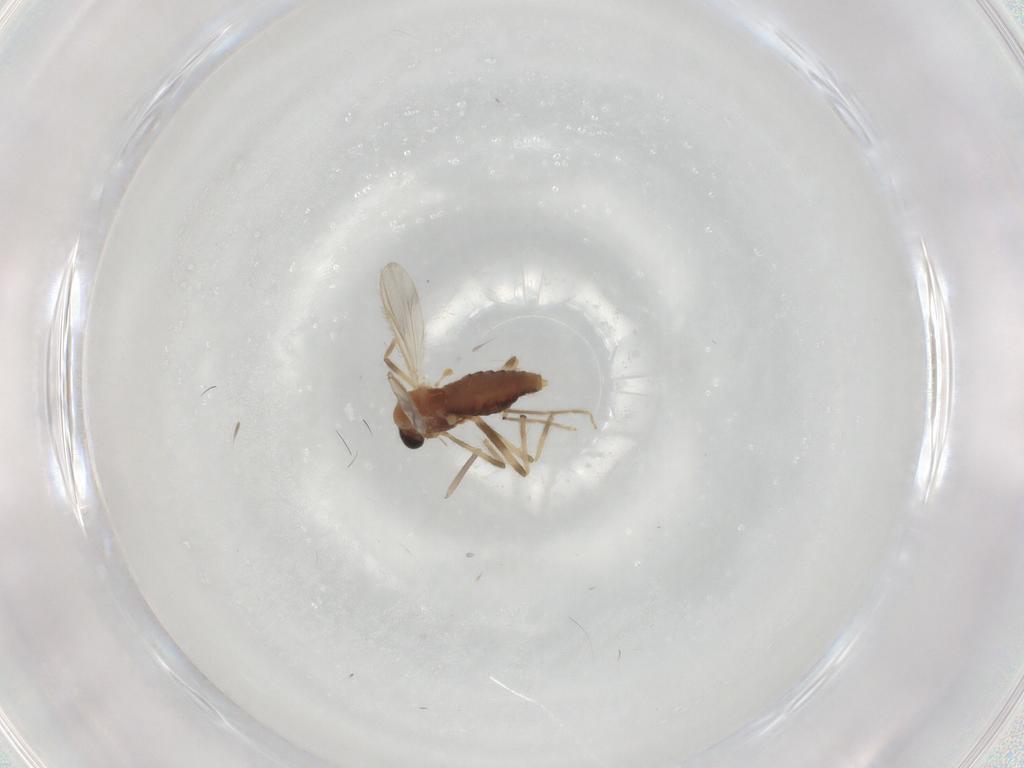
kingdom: Animalia
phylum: Arthropoda
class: Insecta
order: Diptera
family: Chironomidae
